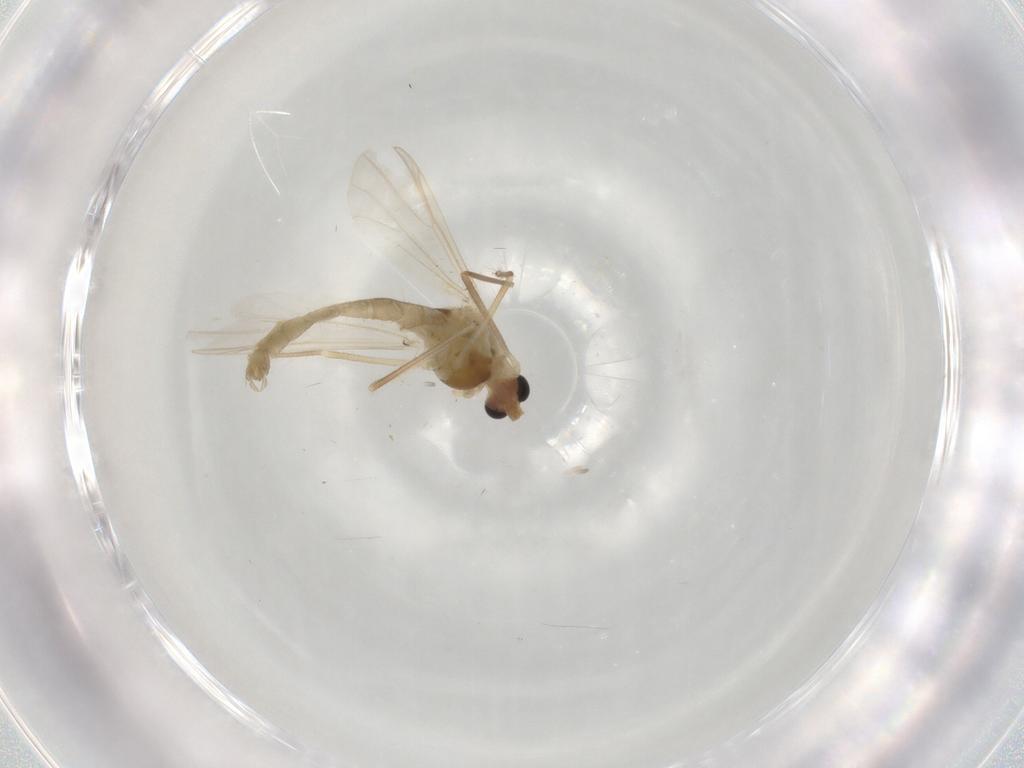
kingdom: Animalia
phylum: Arthropoda
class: Insecta
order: Diptera
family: Chironomidae
